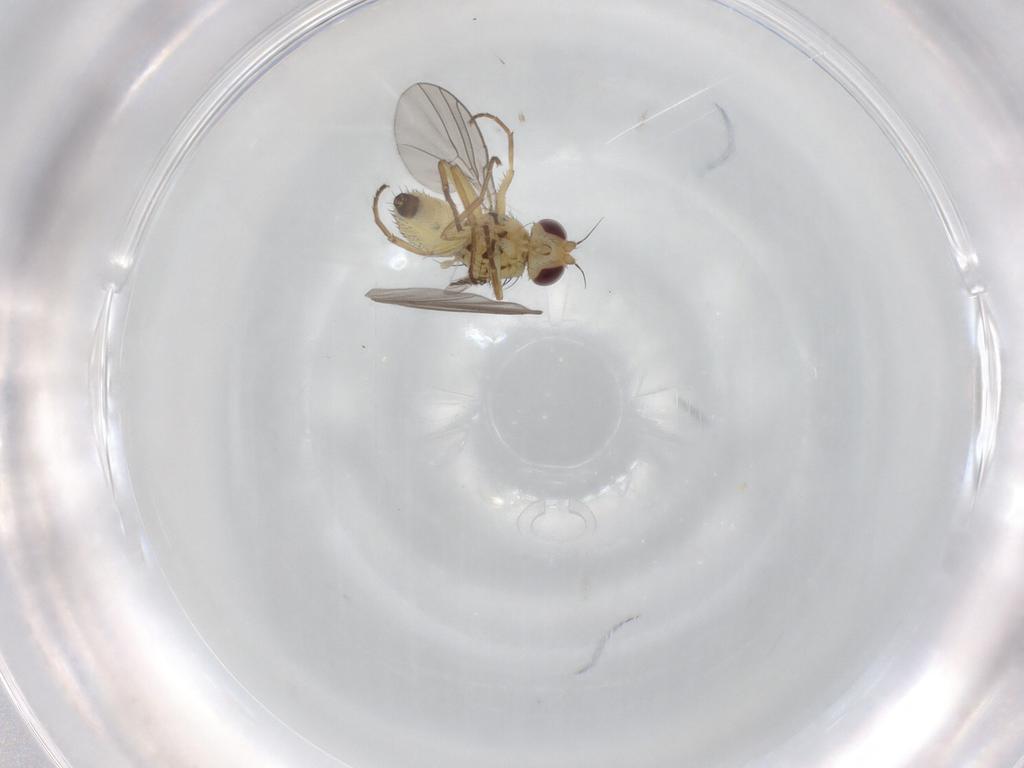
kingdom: Animalia
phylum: Arthropoda
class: Insecta
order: Diptera
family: Agromyzidae
